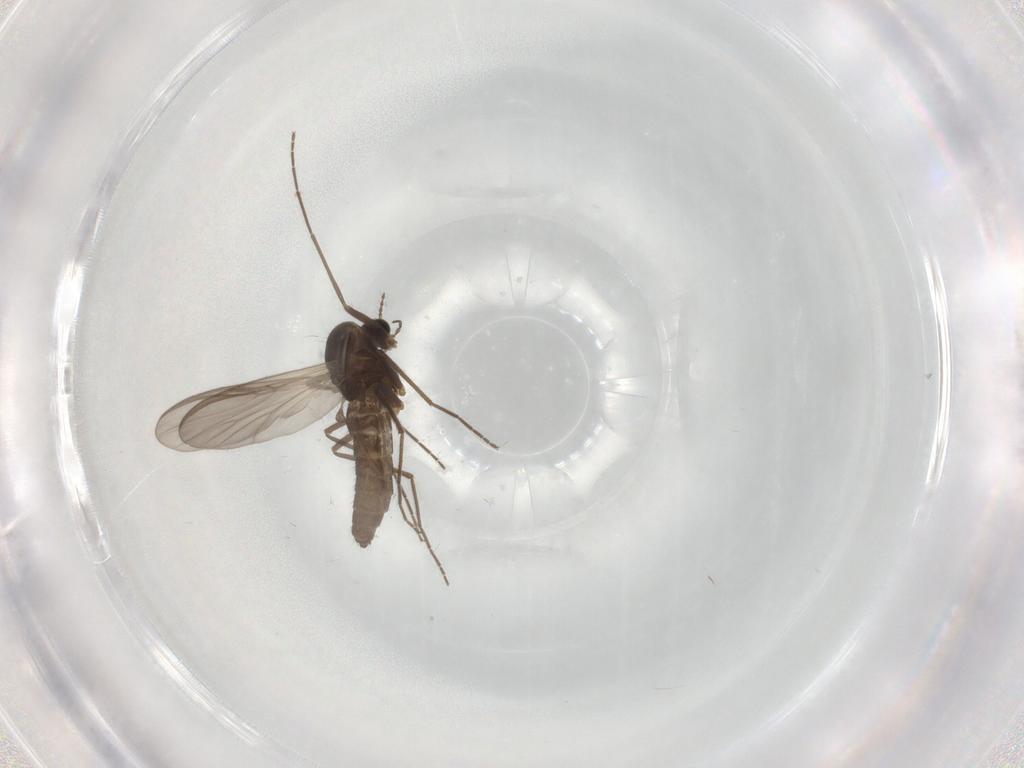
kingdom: Animalia
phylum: Arthropoda
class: Insecta
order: Diptera
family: Chironomidae
